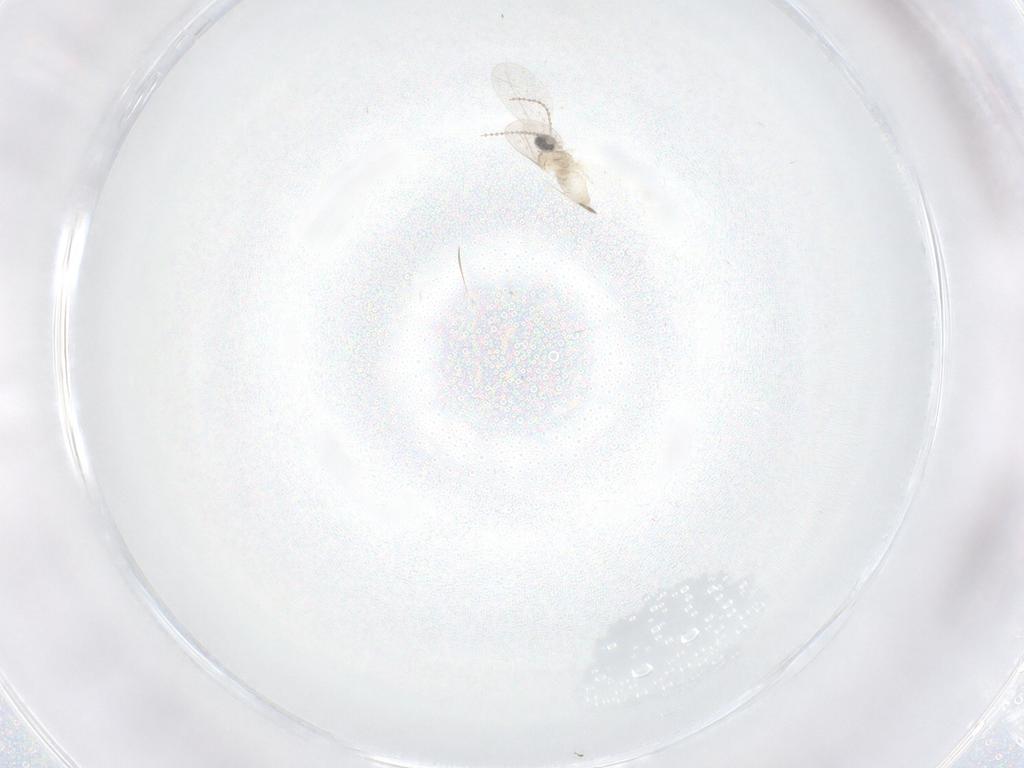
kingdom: Animalia
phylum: Arthropoda
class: Insecta
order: Diptera
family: Cecidomyiidae
